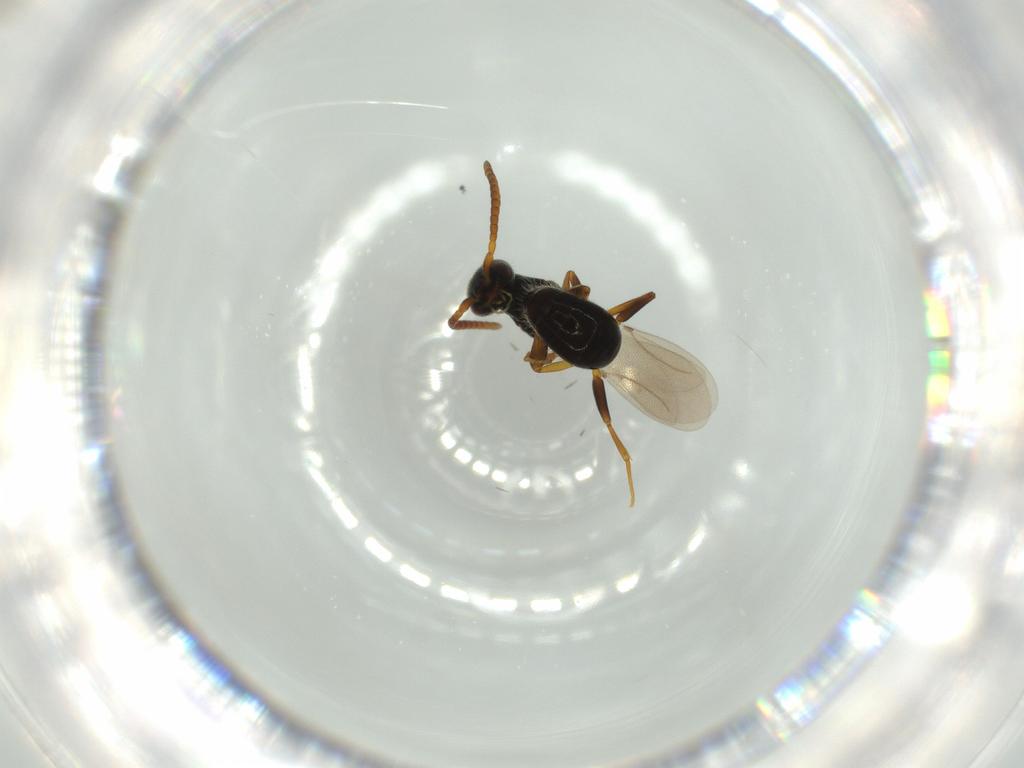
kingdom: Animalia
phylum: Arthropoda
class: Insecta
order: Hymenoptera
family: Bethylidae
